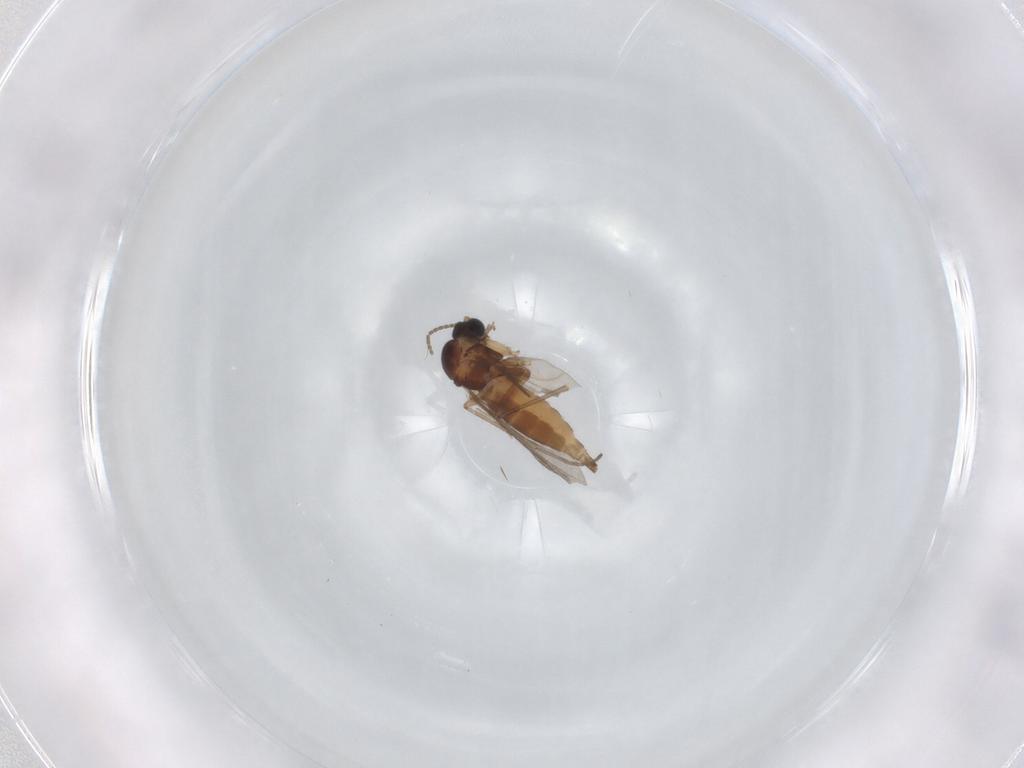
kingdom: Animalia
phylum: Arthropoda
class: Insecta
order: Diptera
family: Sciaridae
